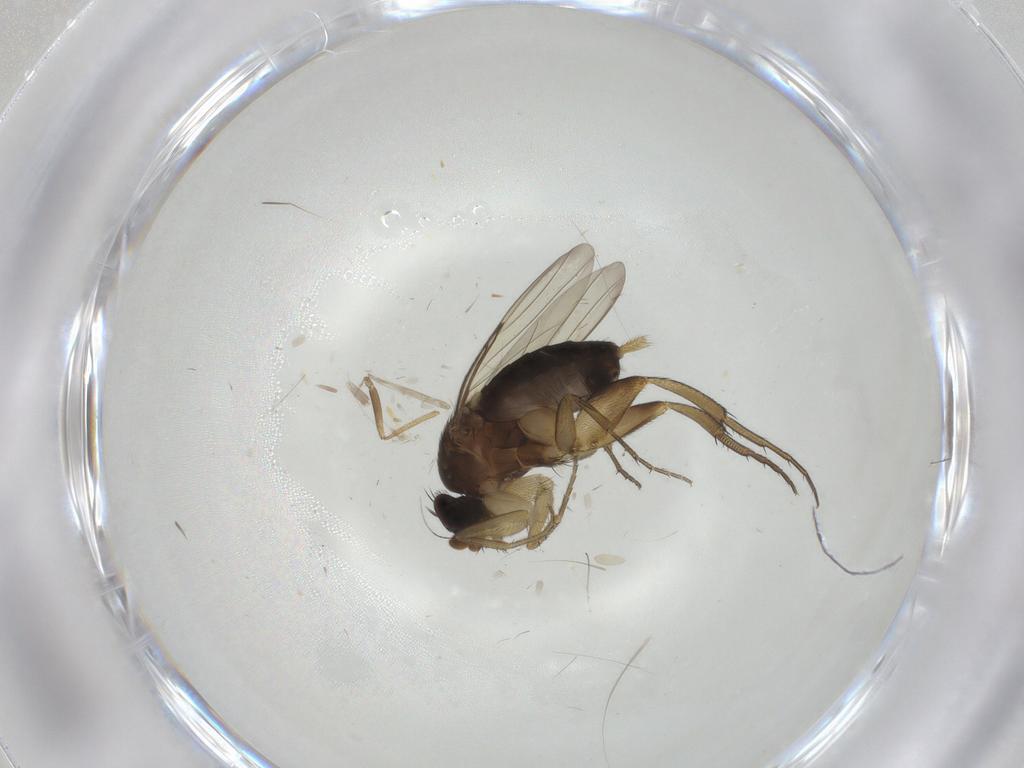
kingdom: Animalia
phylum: Arthropoda
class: Insecta
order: Diptera
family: Phoridae
